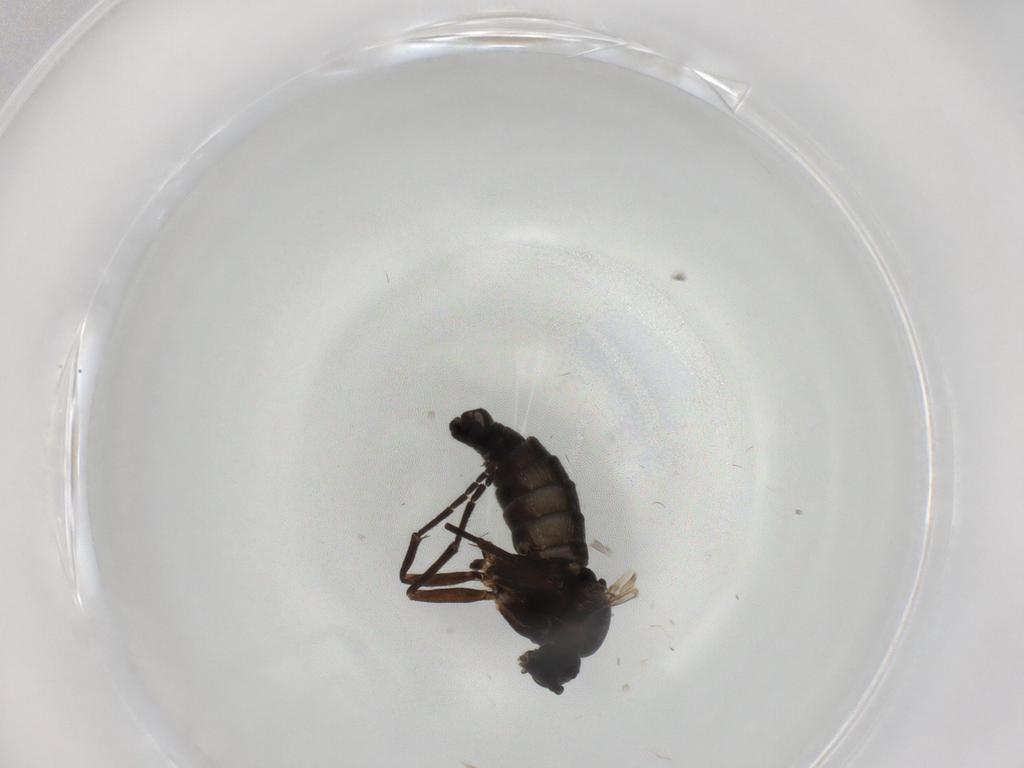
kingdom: Animalia
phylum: Arthropoda
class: Insecta
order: Diptera
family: Sciaridae
